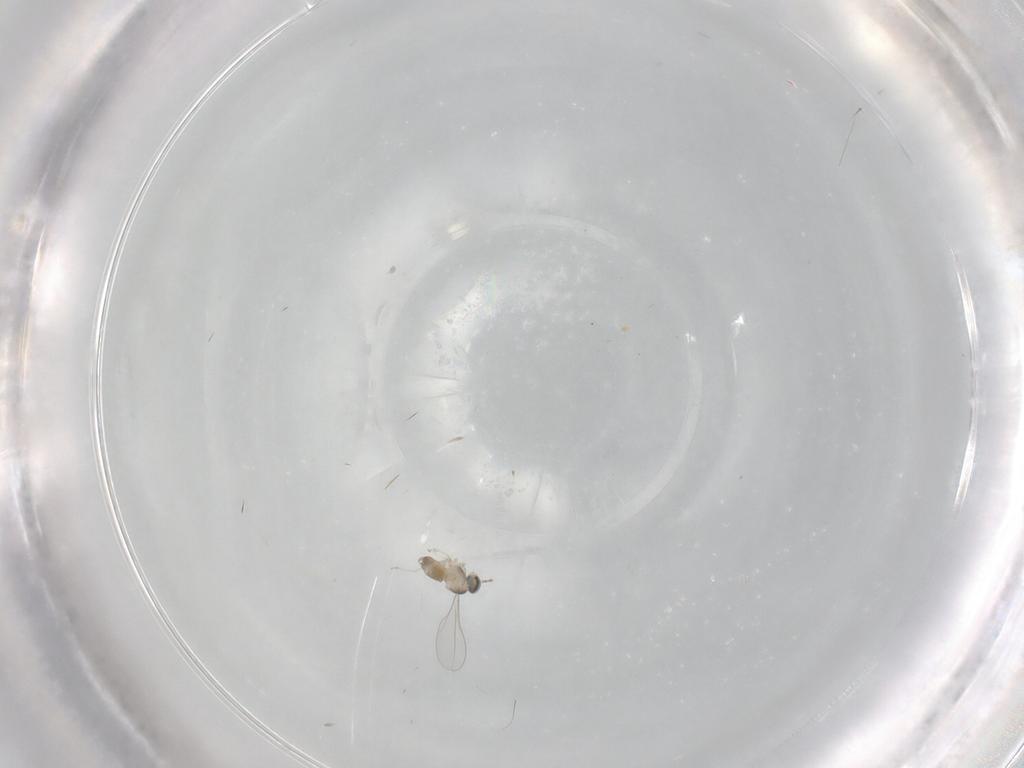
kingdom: Animalia
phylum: Arthropoda
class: Insecta
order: Diptera
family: Cecidomyiidae
